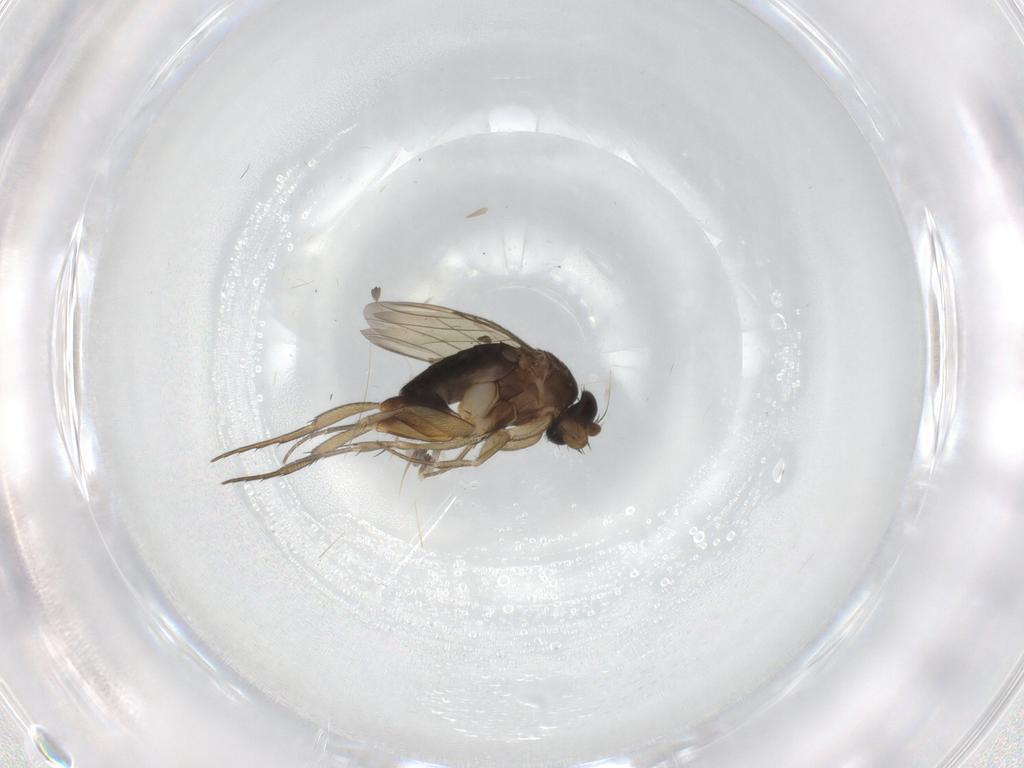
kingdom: Animalia
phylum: Arthropoda
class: Insecta
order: Diptera
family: Phoridae
